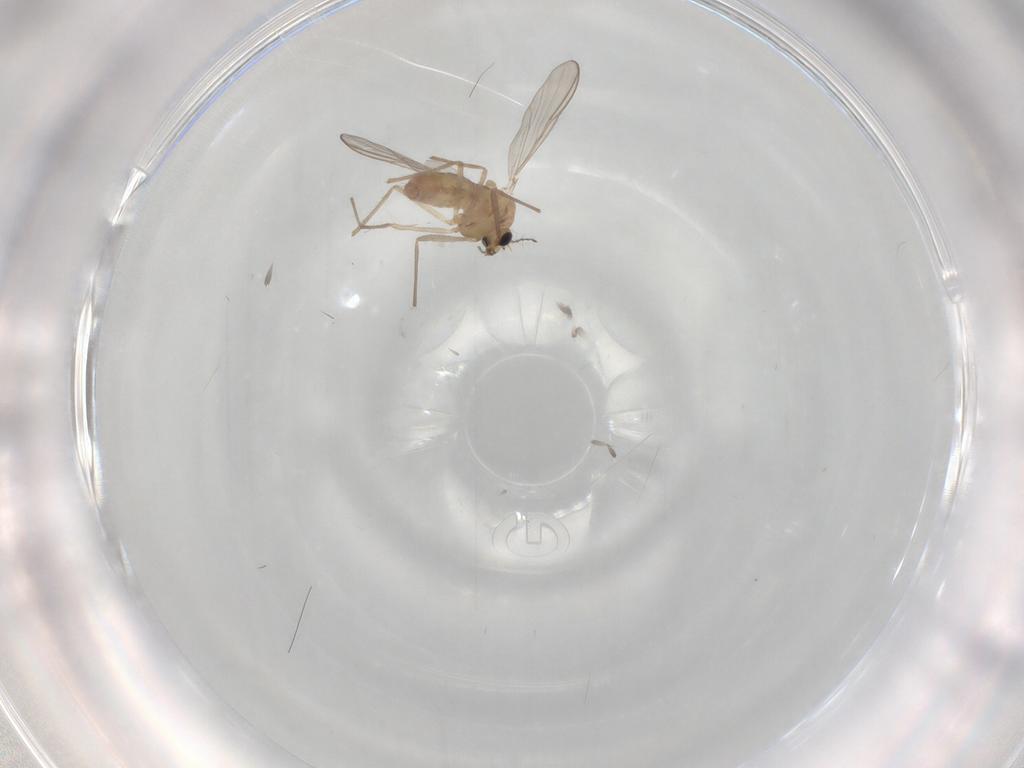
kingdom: Animalia
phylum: Arthropoda
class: Insecta
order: Diptera
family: Chironomidae
